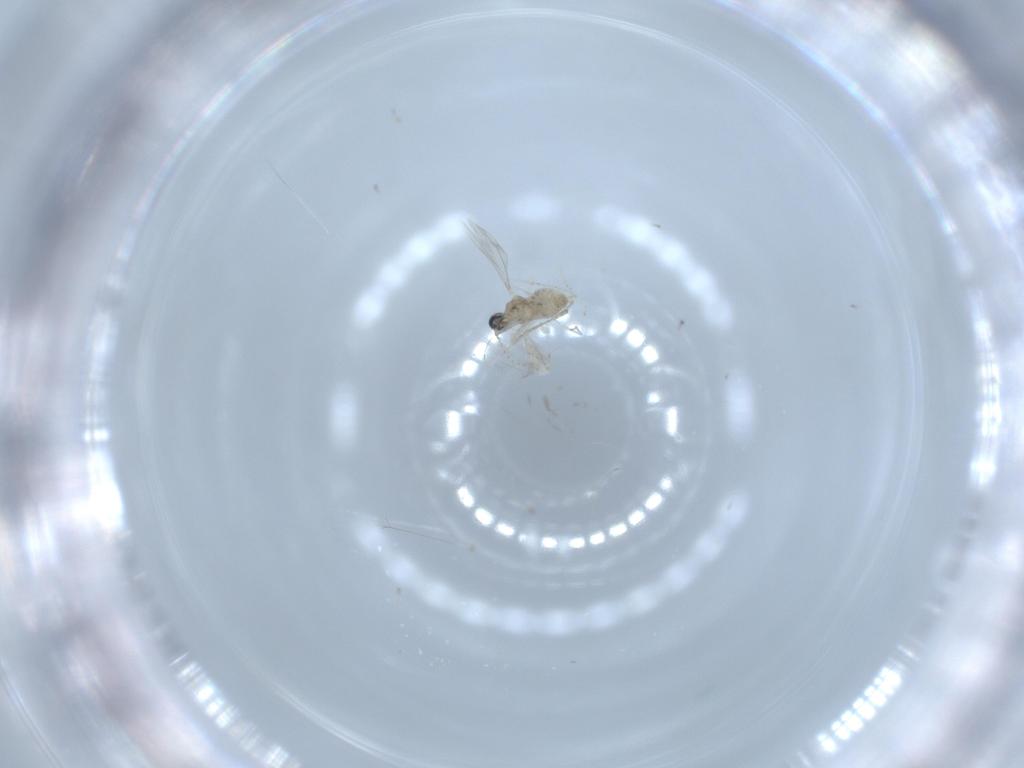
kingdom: Animalia
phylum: Arthropoda
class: Insecta
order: Diptera
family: Phoridae
